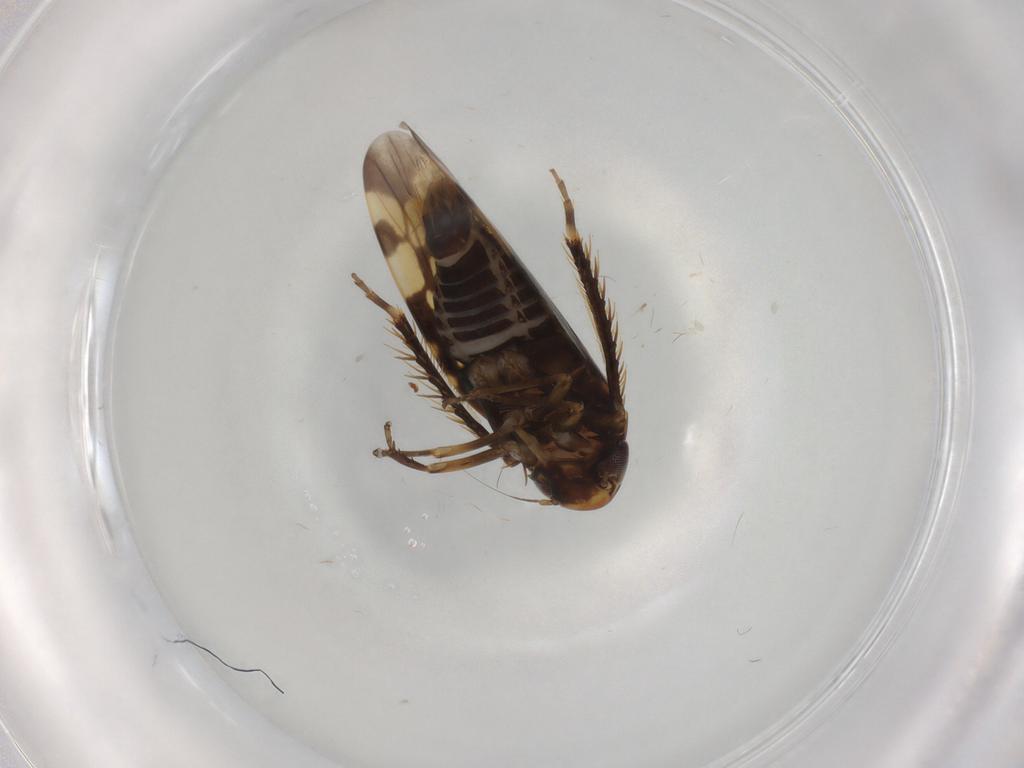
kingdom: Animalia
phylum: Arthropoda
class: Insecta
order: Hemiptera
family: Cicadellidae
